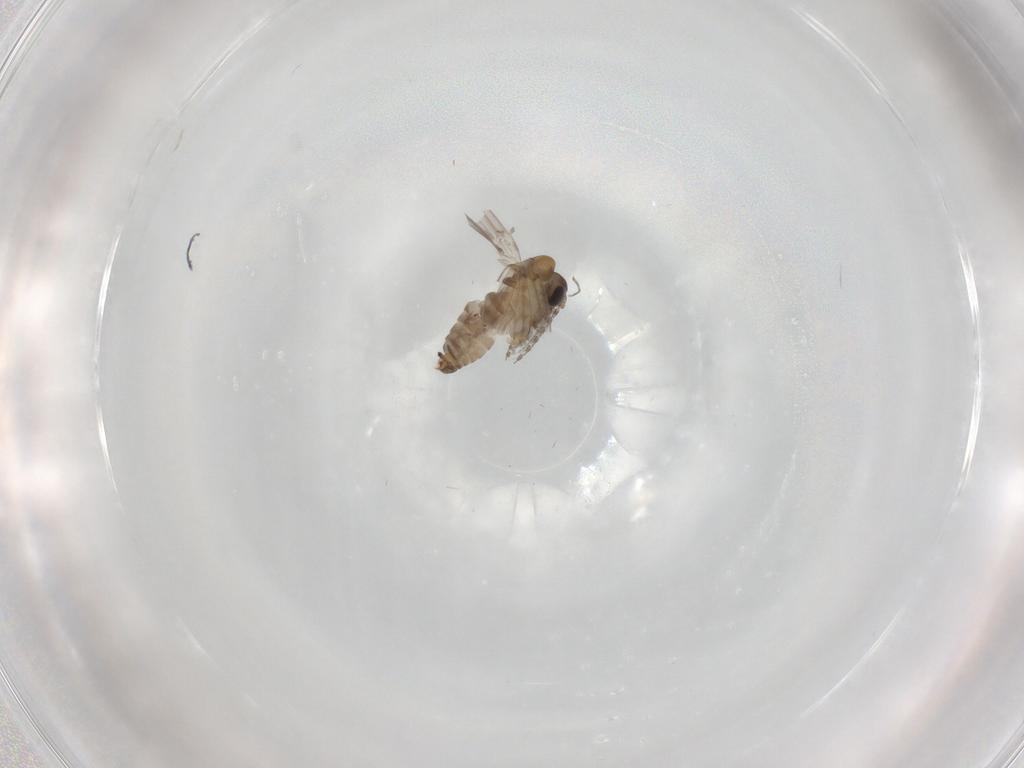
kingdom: Animalia
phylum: Arthropoda
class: Insecta
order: Diptera
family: Psychodidae
